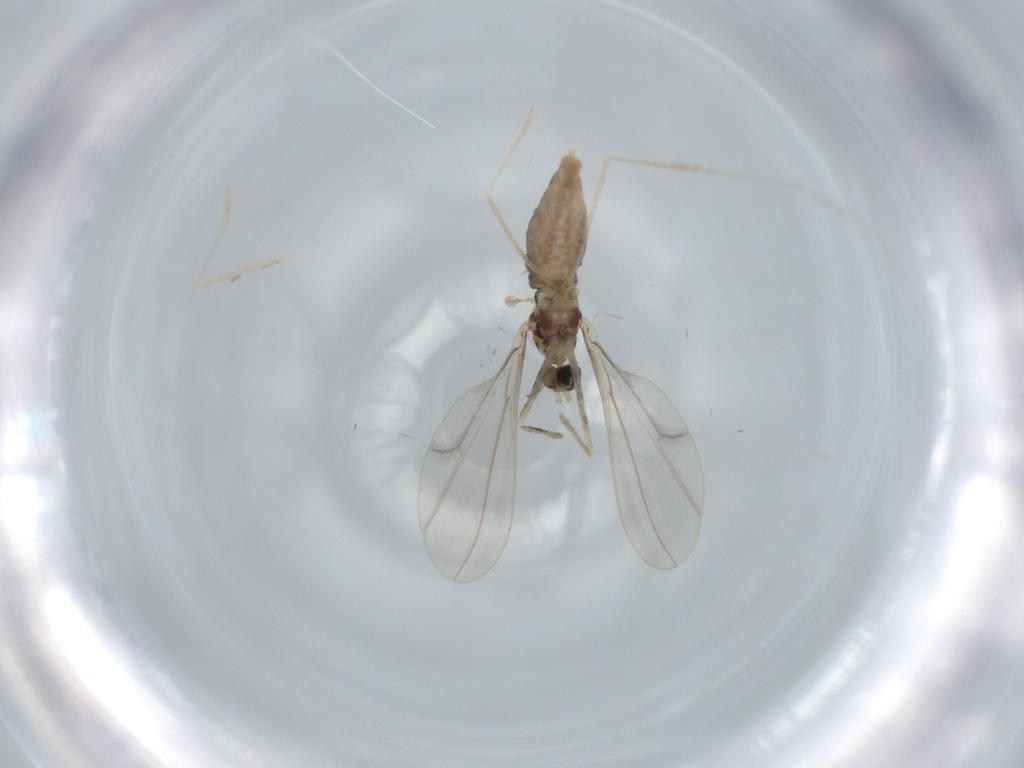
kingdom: Animalia
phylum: Arthropoda
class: Insecta
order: Diptera
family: Cecidomyiidae
